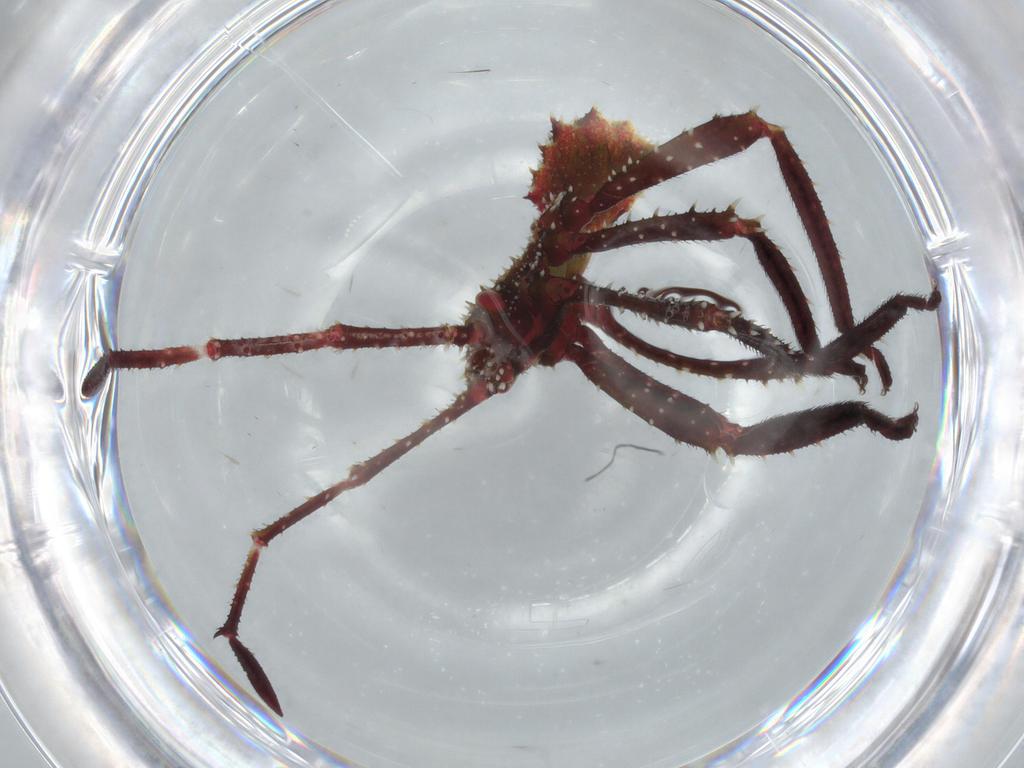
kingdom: Animalia
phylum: Arthropoda
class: Insecta
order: Hemiptera
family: Coreidae
